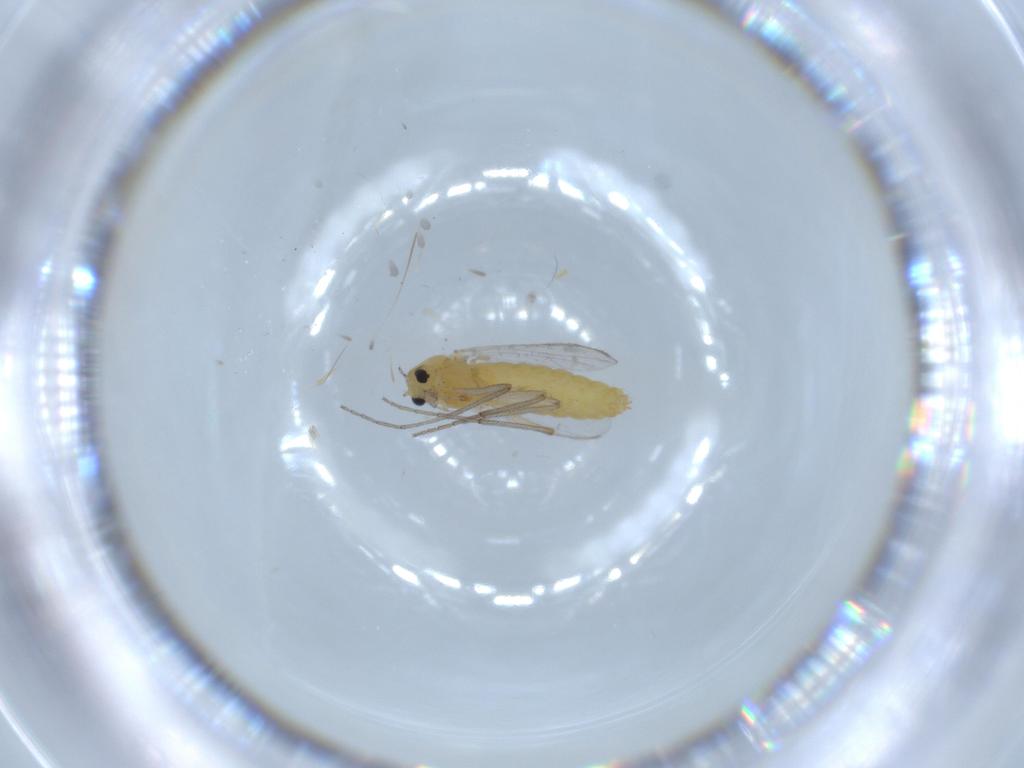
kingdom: Animalia
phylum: Arthropoda
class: Insecta
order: Diptera
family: Chironomidae
